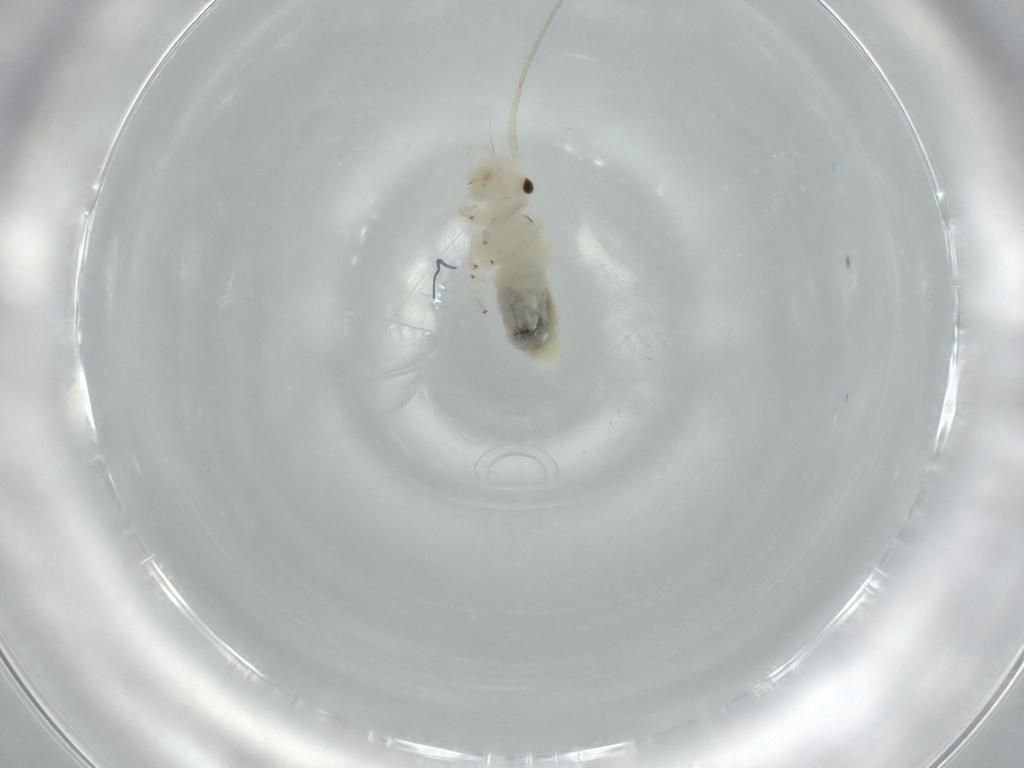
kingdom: Animalia
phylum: Arthropoda
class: Insecta
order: Psocodea
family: Lepidopsocidae
